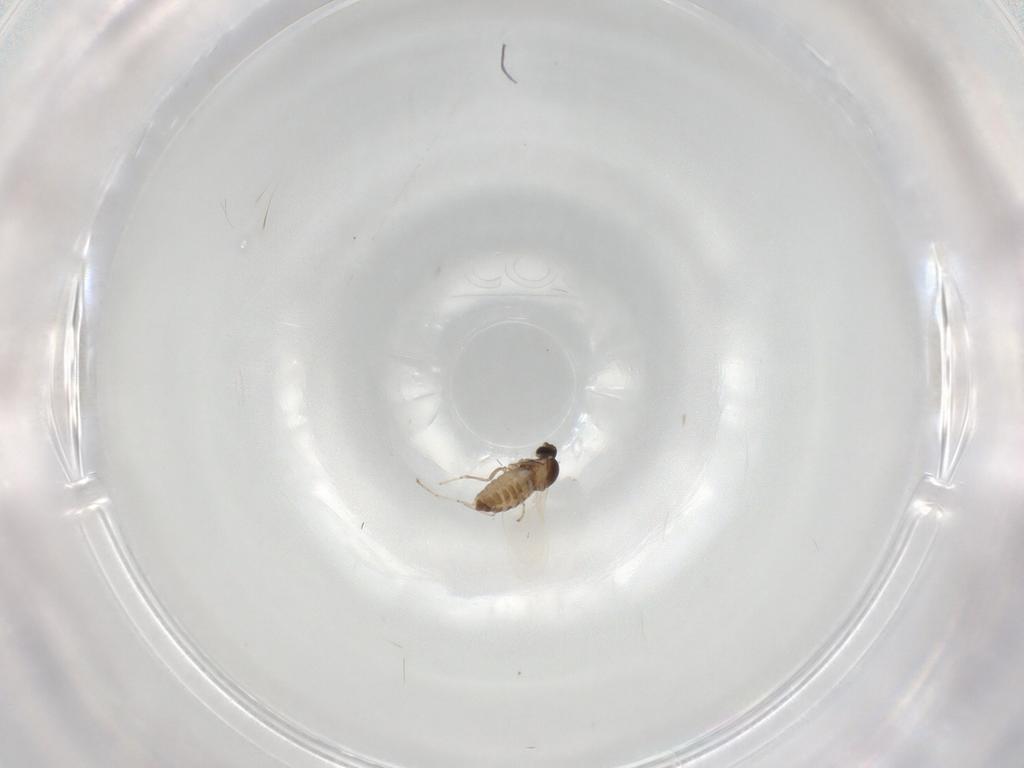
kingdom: Animalia
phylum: Arthropoda
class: Insecta
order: Diptera
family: Cecidomyiidae
